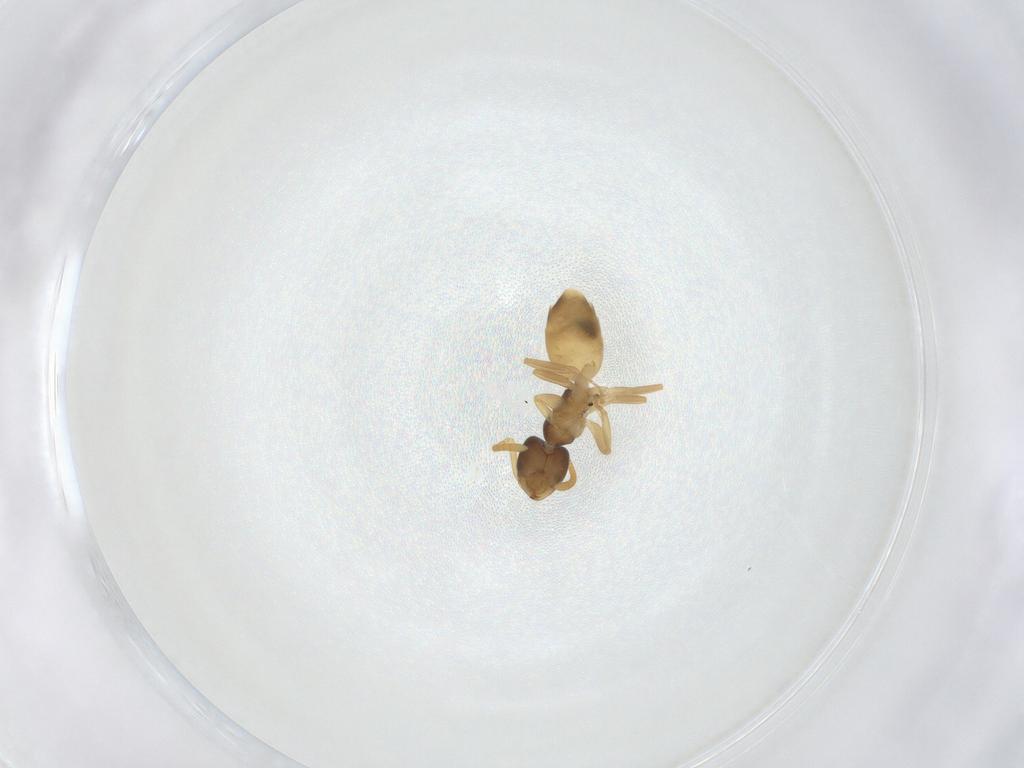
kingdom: Animalia
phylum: Arthropoda
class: Insecta
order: Hymenoptera
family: Formicidae
